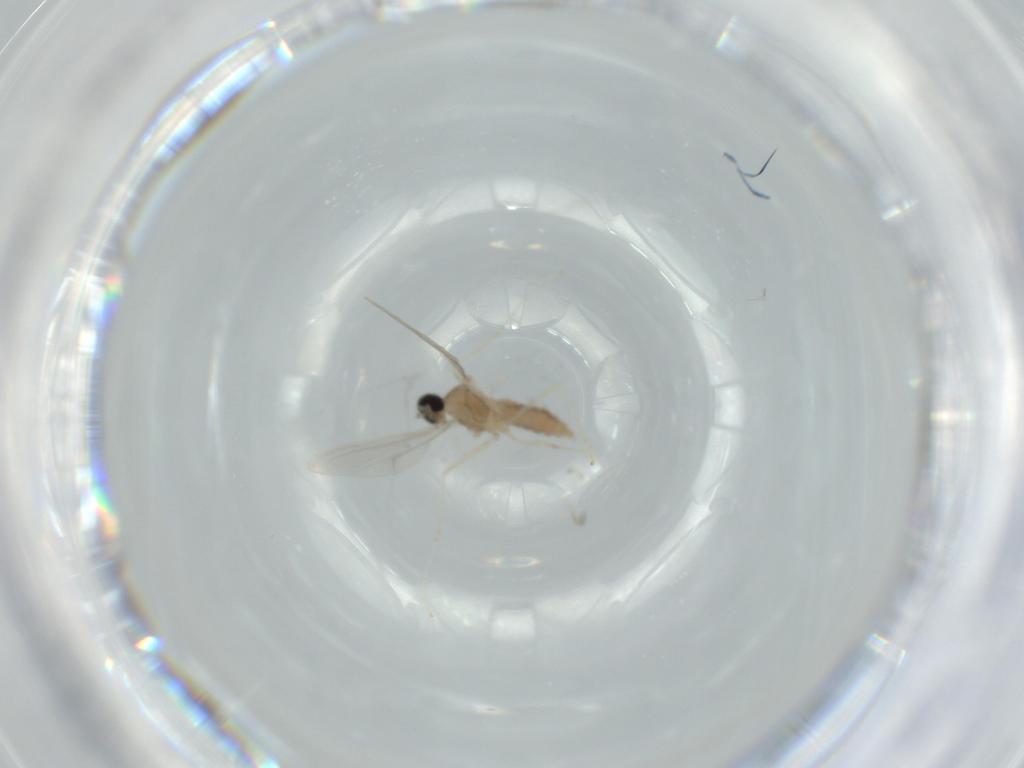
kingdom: Animalia
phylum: Arthropoda
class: Insecta
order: Diptera
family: Cecidomyiidae
